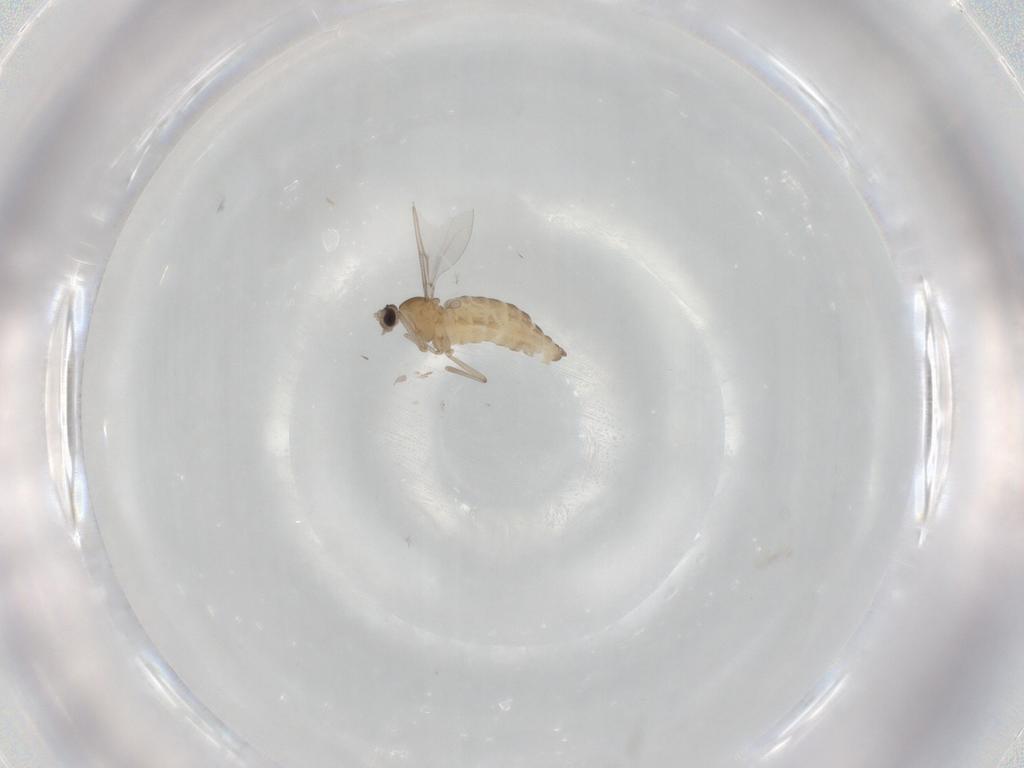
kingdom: Animalia
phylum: Arthropoda
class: Insecta
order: Diptera
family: Cecidomyiidae
